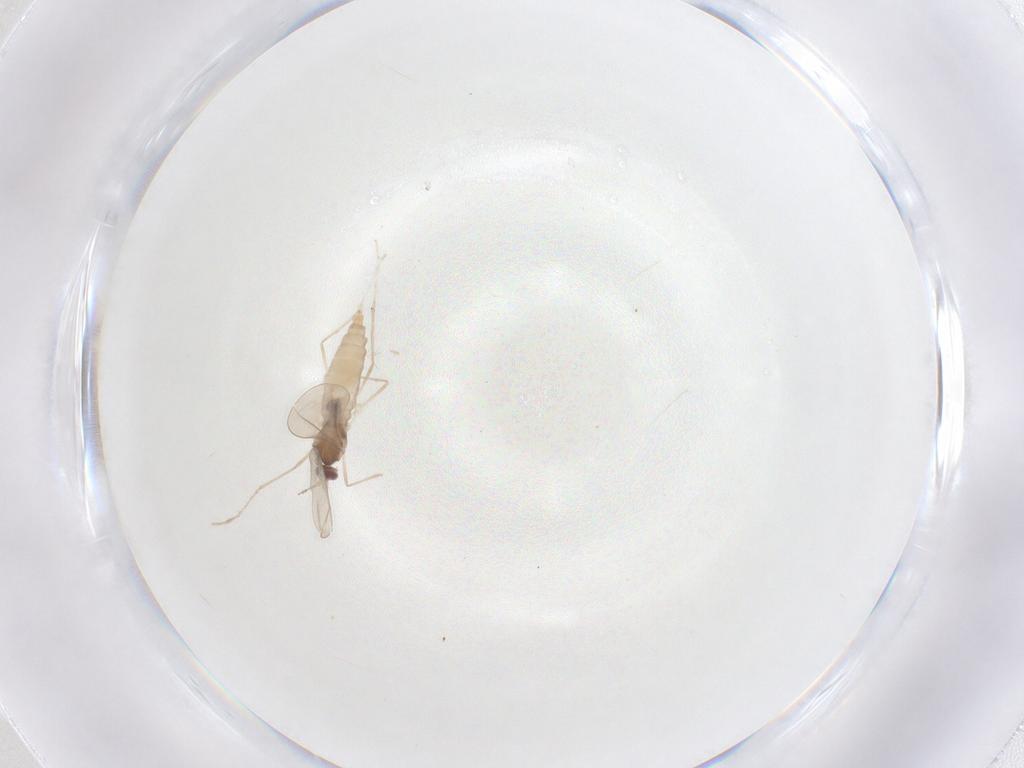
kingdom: Animalia
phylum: Arthropoda
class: Insecta
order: Diptera
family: Cecidomyiidae
